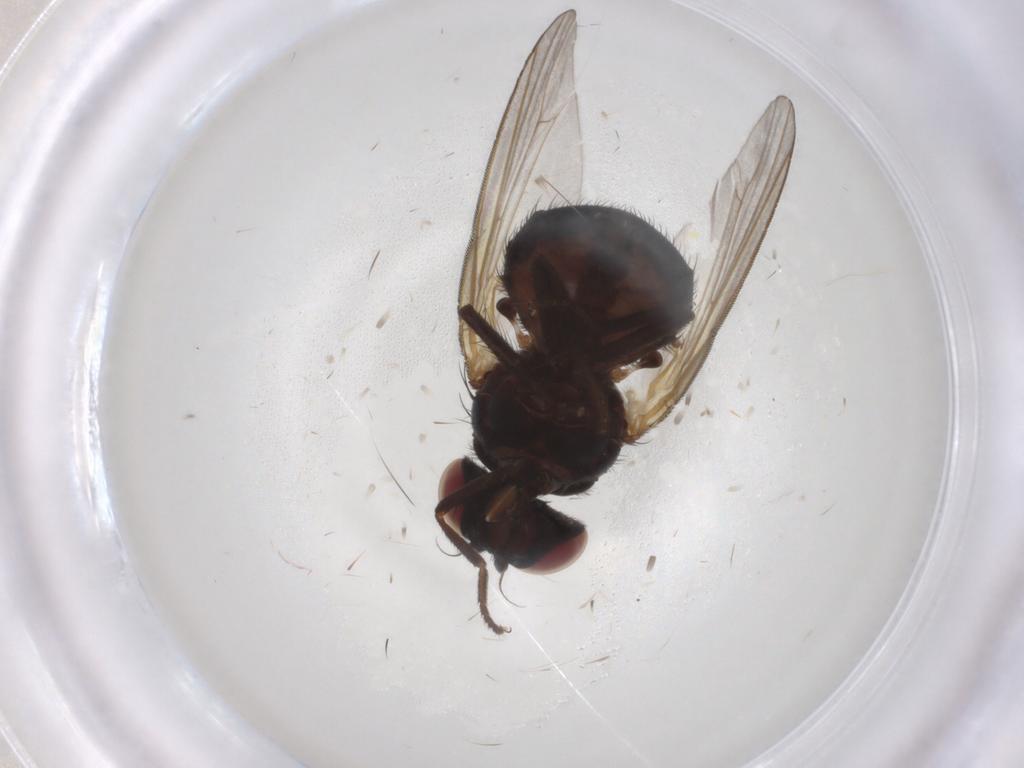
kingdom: Animalia
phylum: Arthropoda
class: Insecta
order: Diptera
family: Lonchaeidae
